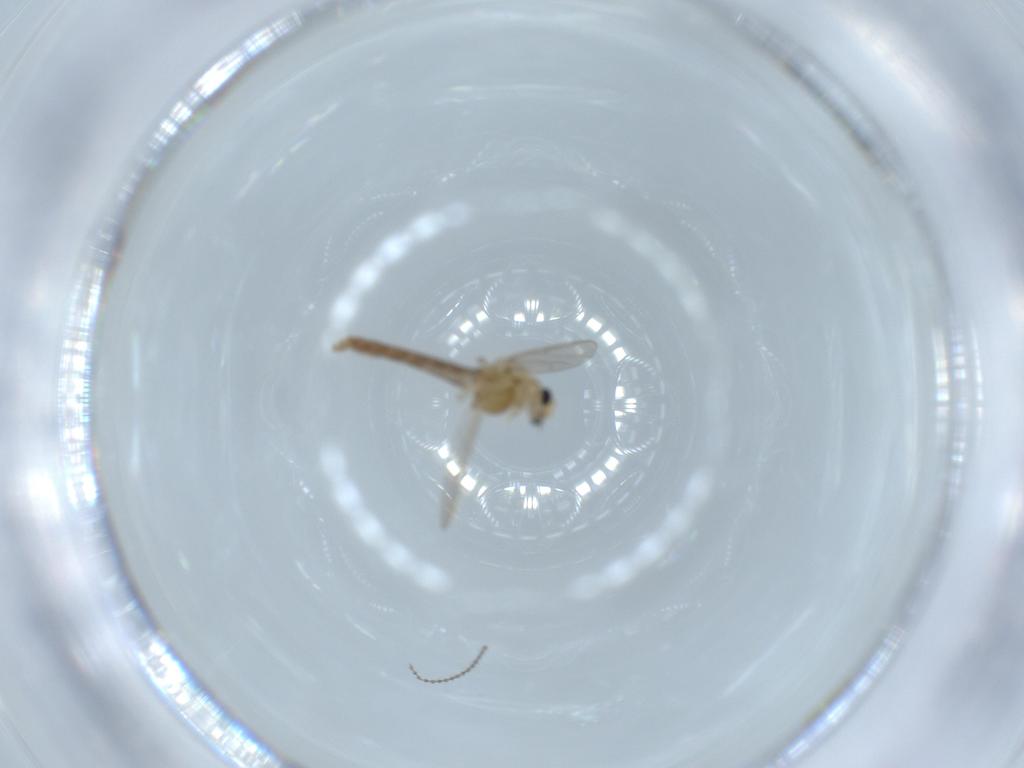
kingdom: Animalia
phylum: Arthropoda
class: Insecta
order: Diptera
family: Chironomidae
